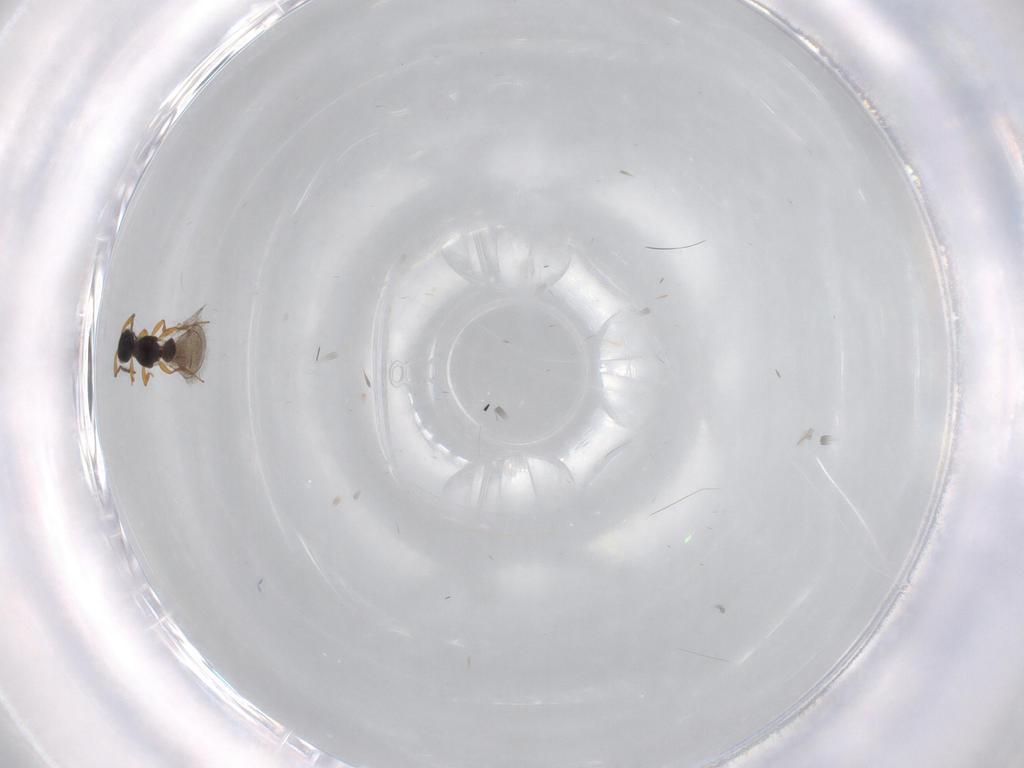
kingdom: Animalia
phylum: Arthropoda
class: Insecta
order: Hymenoptera
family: Platygastridae
